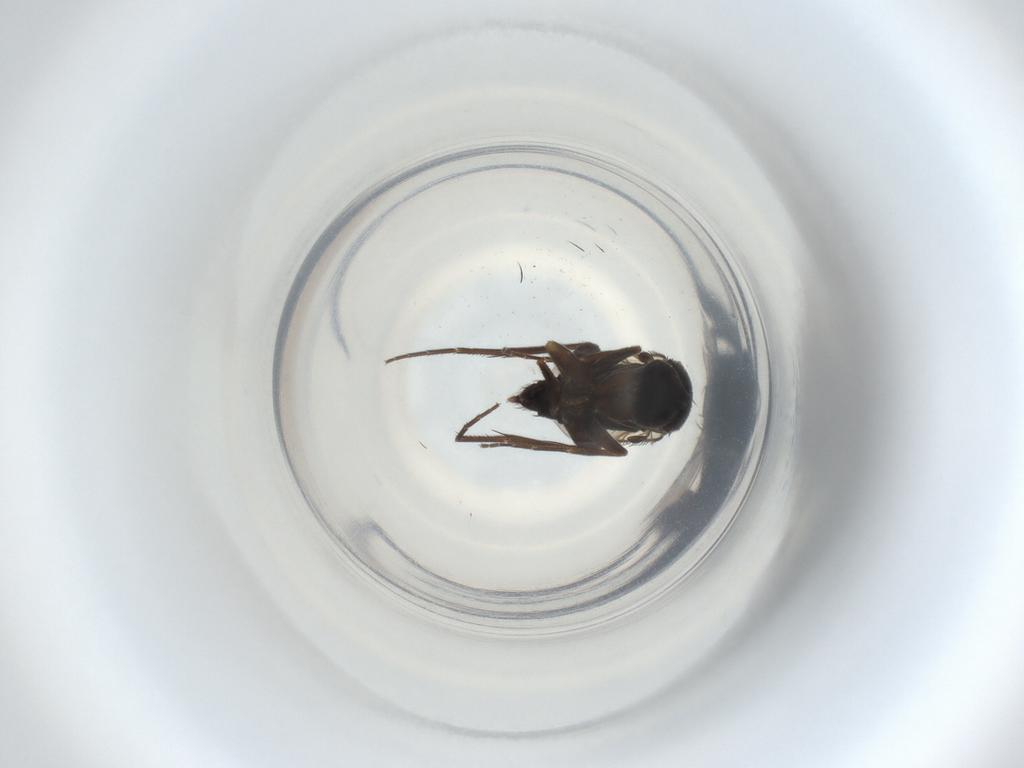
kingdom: Animalia
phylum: Arthropoda
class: Insecta
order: Diptera
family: Phoridae
